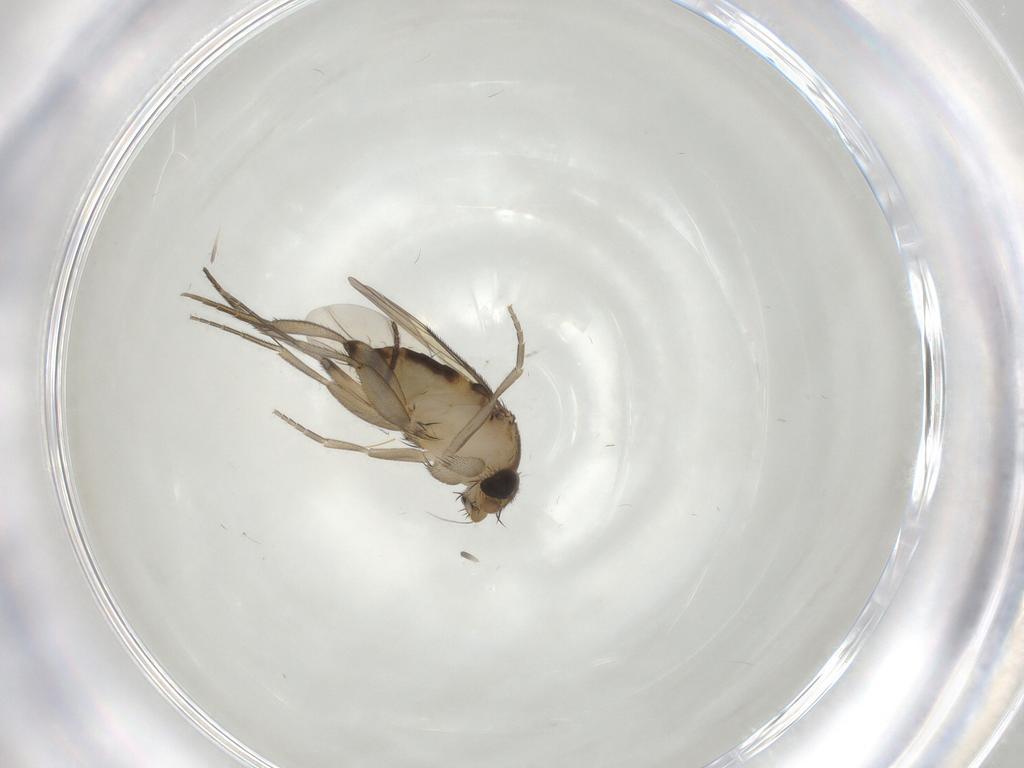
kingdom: Animalia
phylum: Arthropoda
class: Insecta
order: Diptera
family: Phoridae
